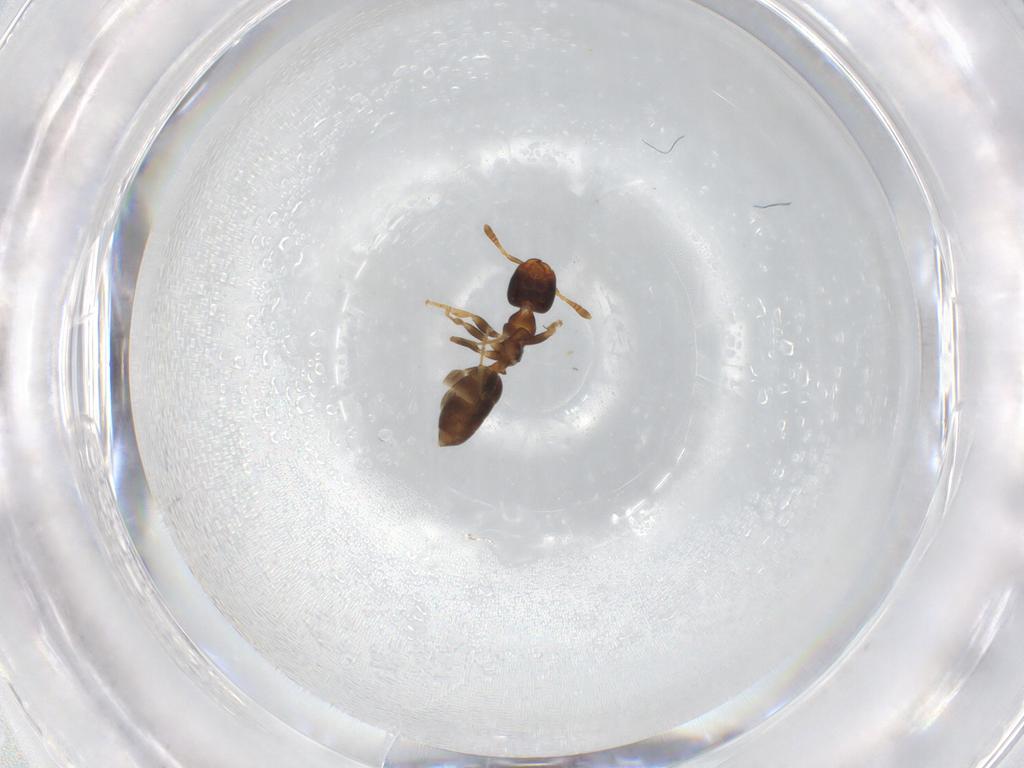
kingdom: Animalia
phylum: Arthropoda
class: Insecta
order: Hymenoptera
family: Formicidae
